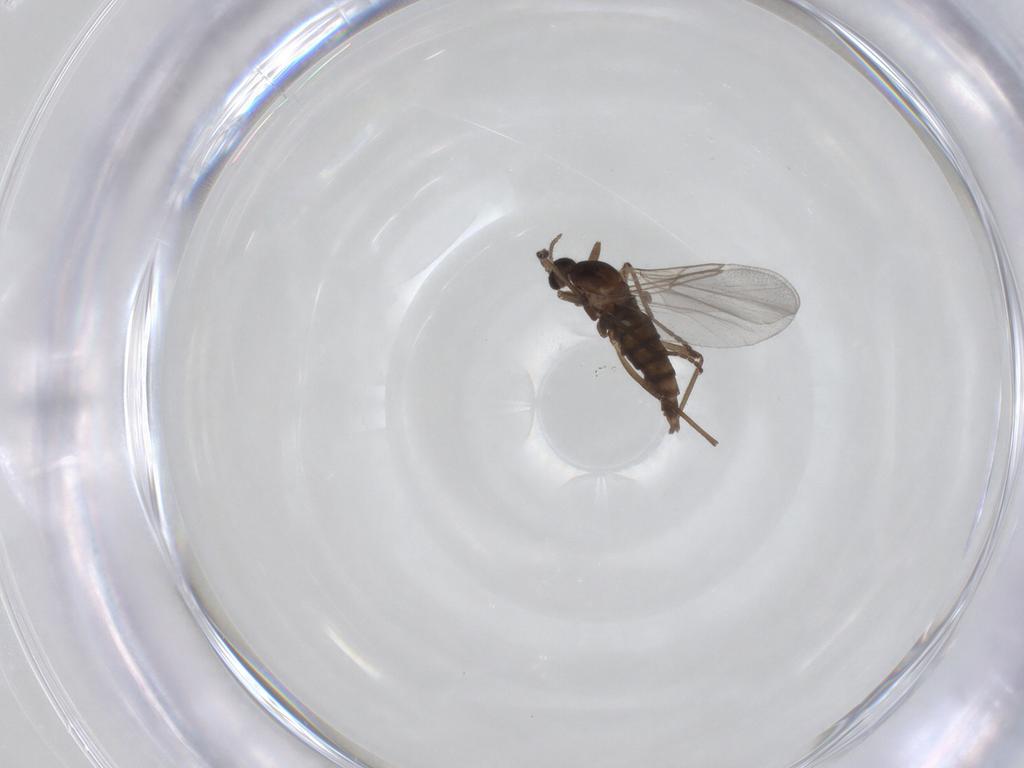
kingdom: Animalia
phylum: Arthropoda
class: Insecta
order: Diptera
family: Cecidomyiidae
